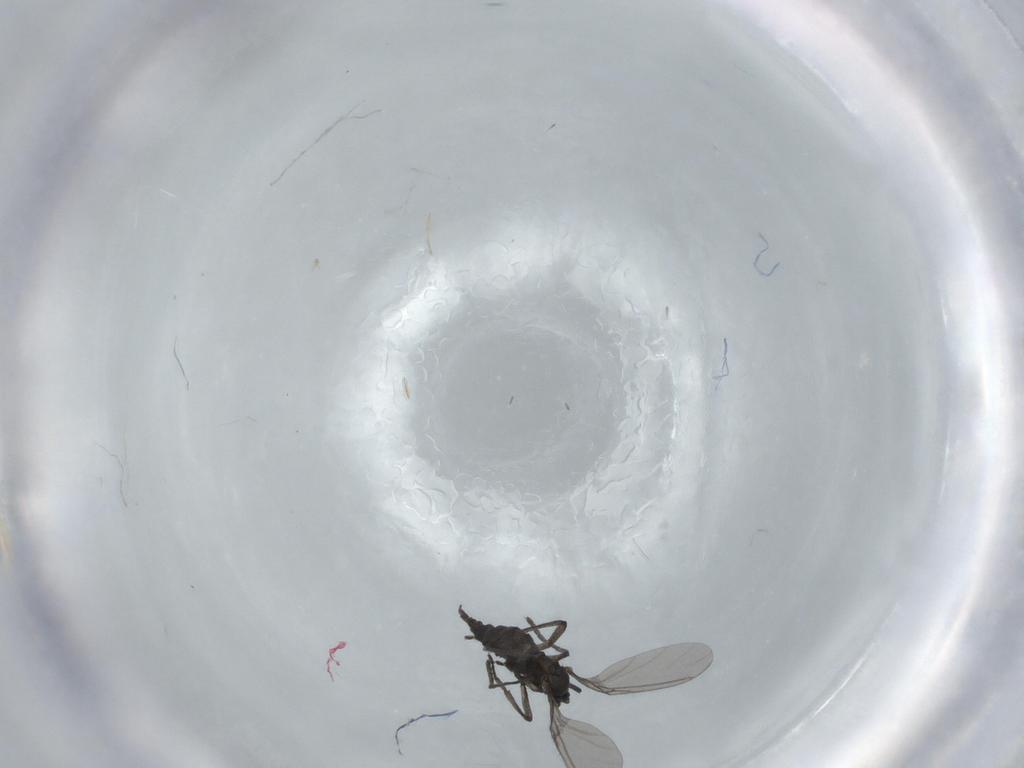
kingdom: Animalia
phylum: Arthropoda
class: Insecta
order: Diptera
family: Sciaridae
